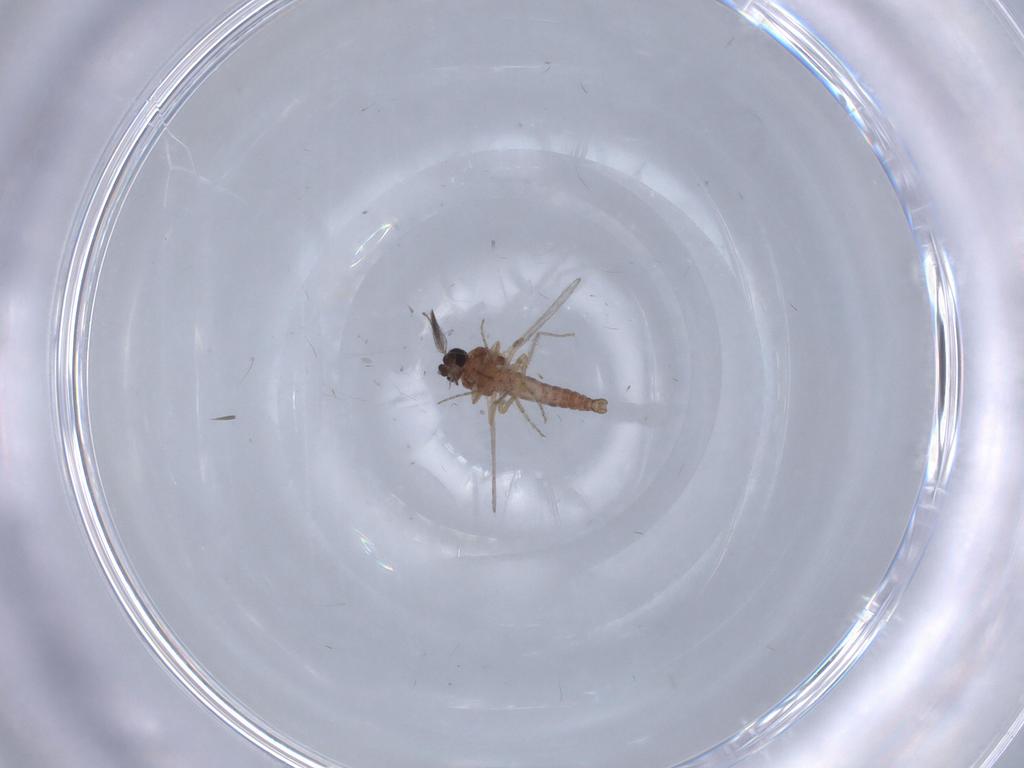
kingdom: Animalia
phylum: Arthropoda
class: Insecta
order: Diptera
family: Ceratopogonidae
